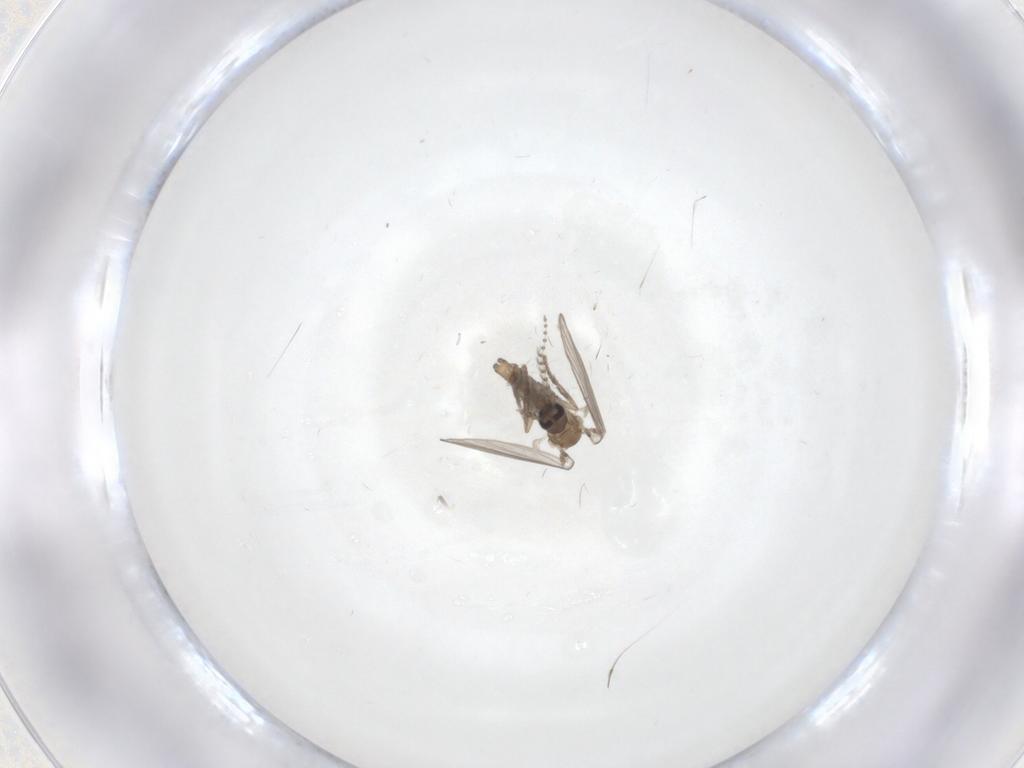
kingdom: Animalia
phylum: Arthropoda
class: Insecta
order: Diptera
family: Psychodidae
